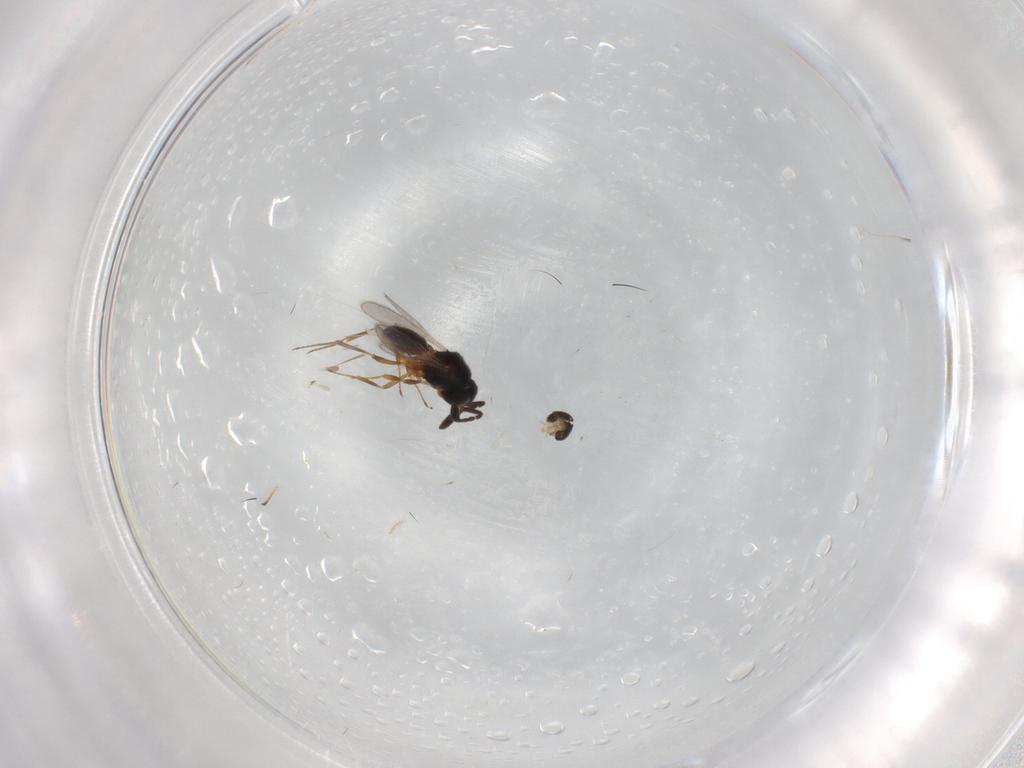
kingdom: Animalia
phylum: Arthropoda
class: Insecta
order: Hymenoptera
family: Scelionidae
